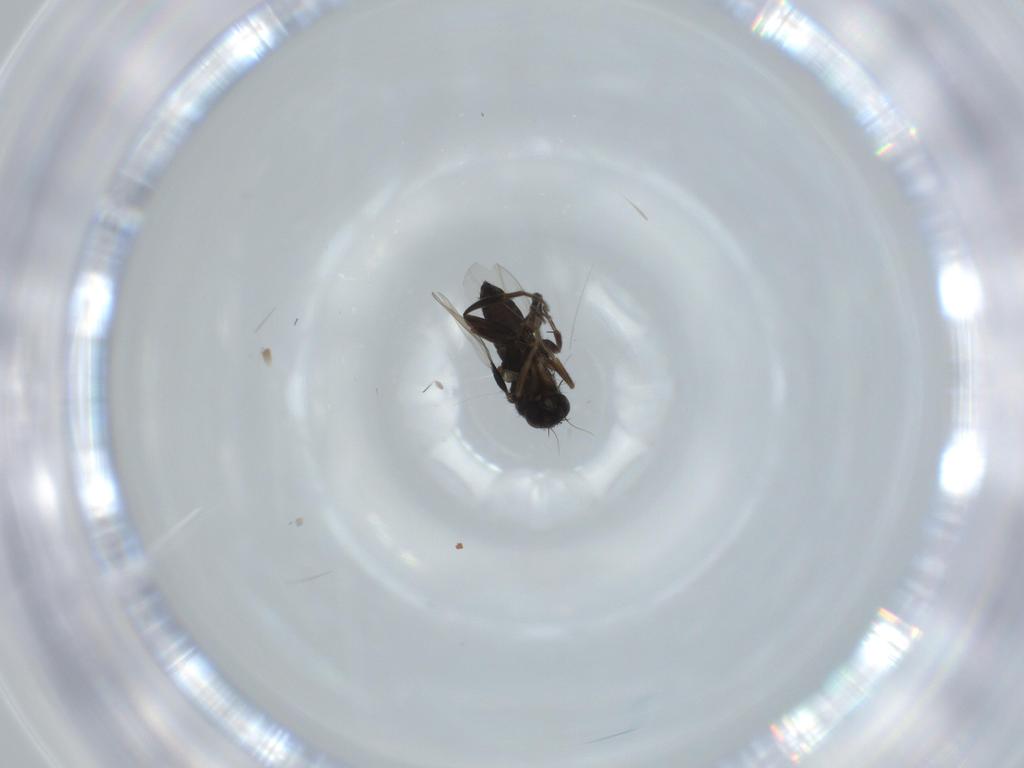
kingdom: Animalia
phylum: Arthropoda
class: Insecta
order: Diptera
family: Phoridae
